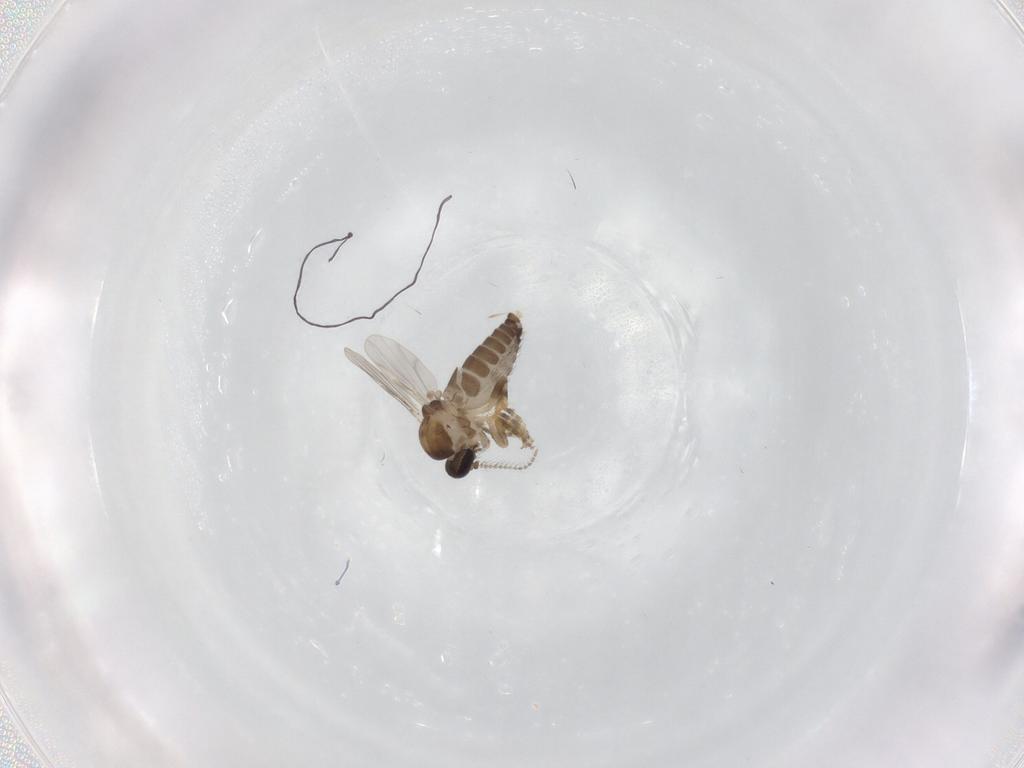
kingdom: Animalia
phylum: Arthropoda
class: Insecta
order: Diptera
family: Ceratopogonidae
